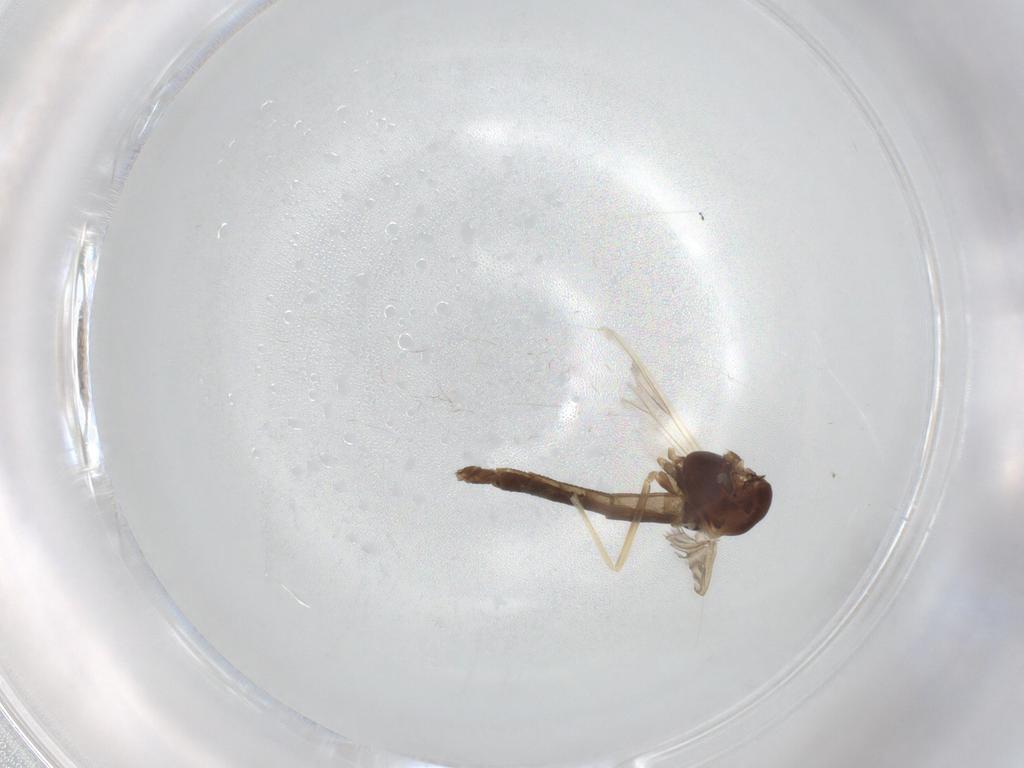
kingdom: Animalia
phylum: Arthropoda
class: Insecta
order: Diptera
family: Chironomidae
